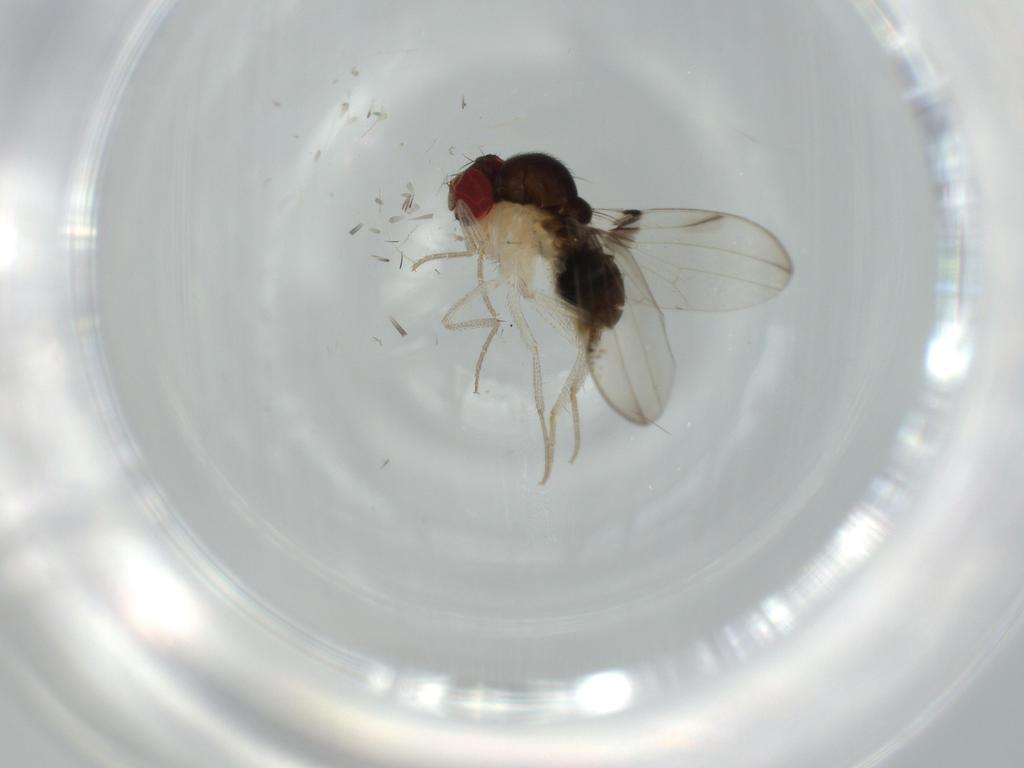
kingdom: Animalia
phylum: Arthropoda
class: Insecta
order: Diptera
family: Drosophilidae
